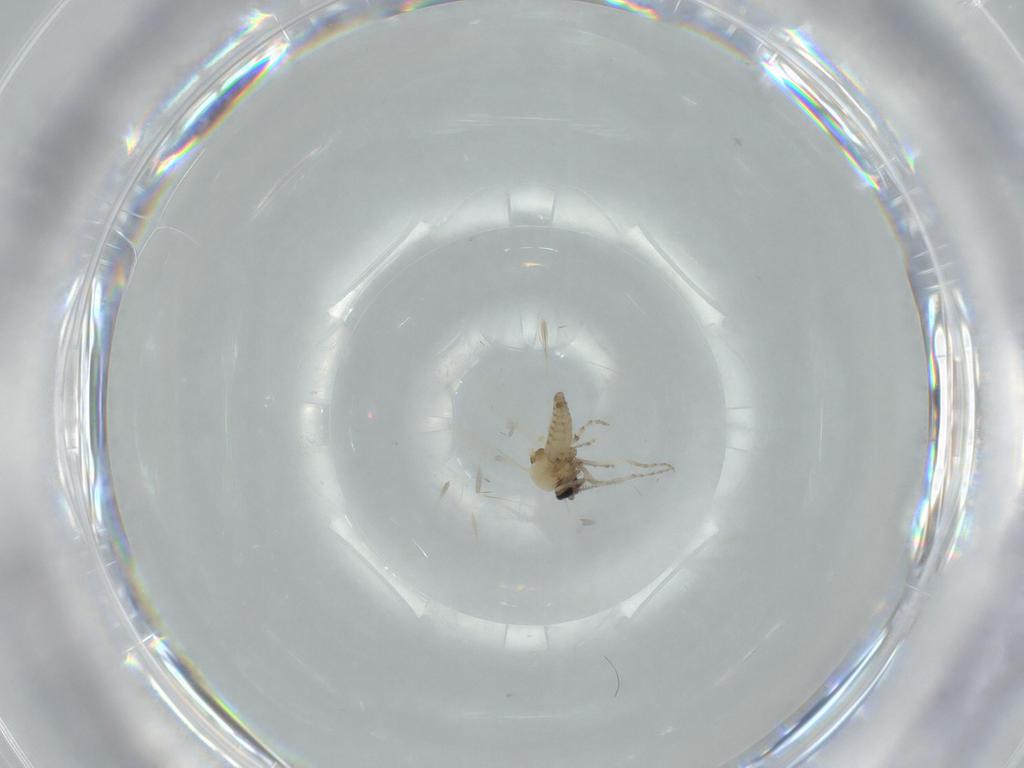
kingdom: Animalia
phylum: Arthropoda
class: Insecta
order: Diptera
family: Ceratopogonidae
